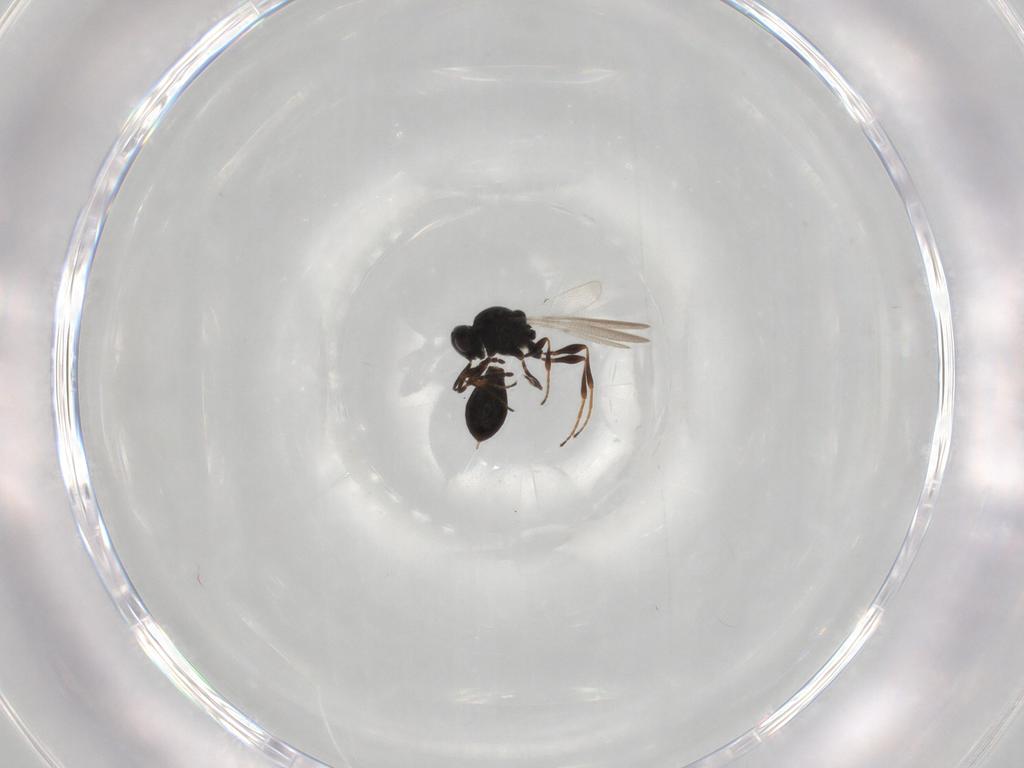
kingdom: Animalia
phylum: Arthropoda
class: Insecta
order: Hymenoptera
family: Platygastridae
